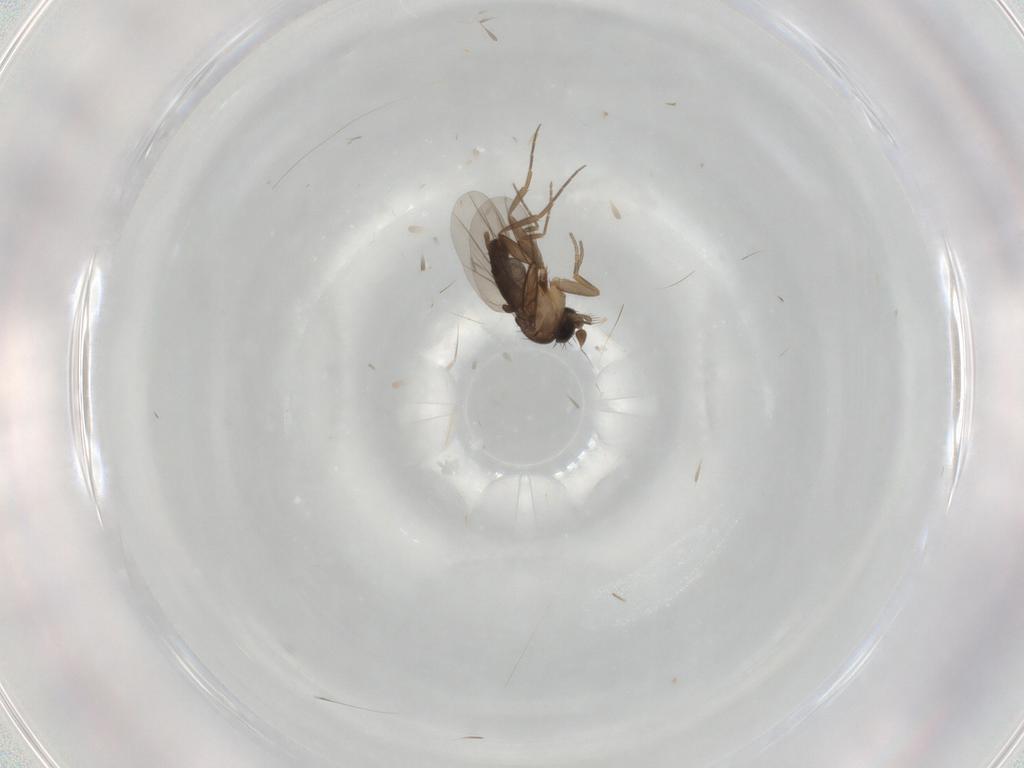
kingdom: Animalia
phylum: Arthropoda
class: Insecta
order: Diptera
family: Phoridae
